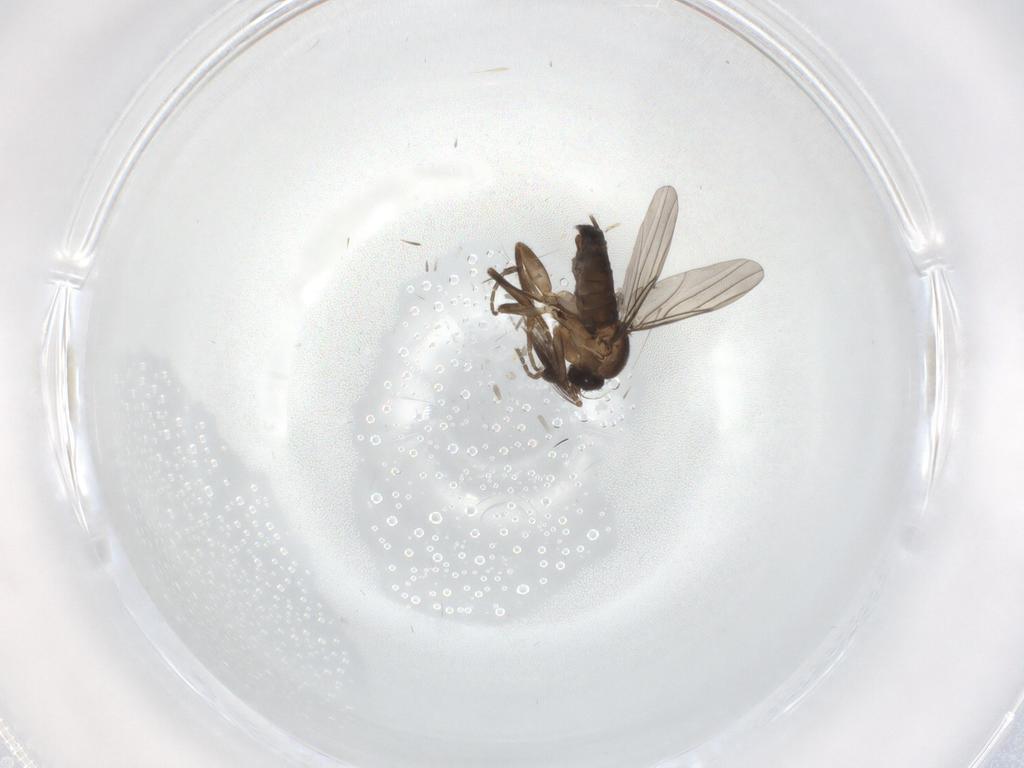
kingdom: Animalia
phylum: Arthropoda
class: Insecta
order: Diptera
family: Cecidomyiidae
